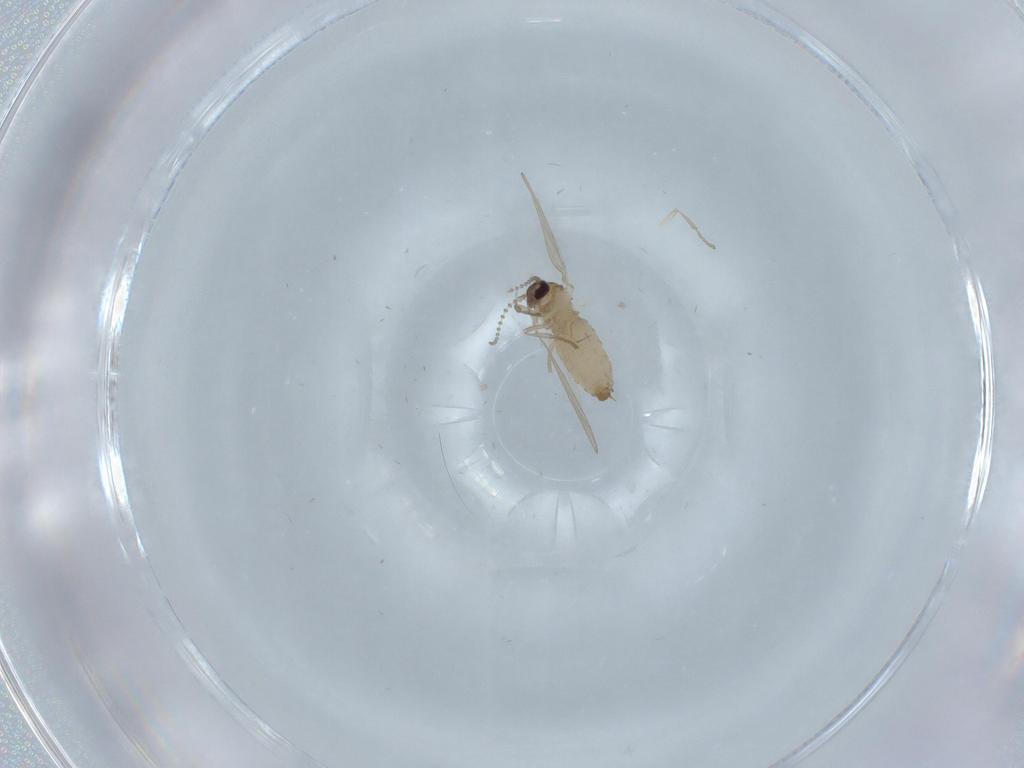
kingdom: Animalia
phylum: Arthropoda
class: Insecta
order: Diptera
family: Psychodidae
